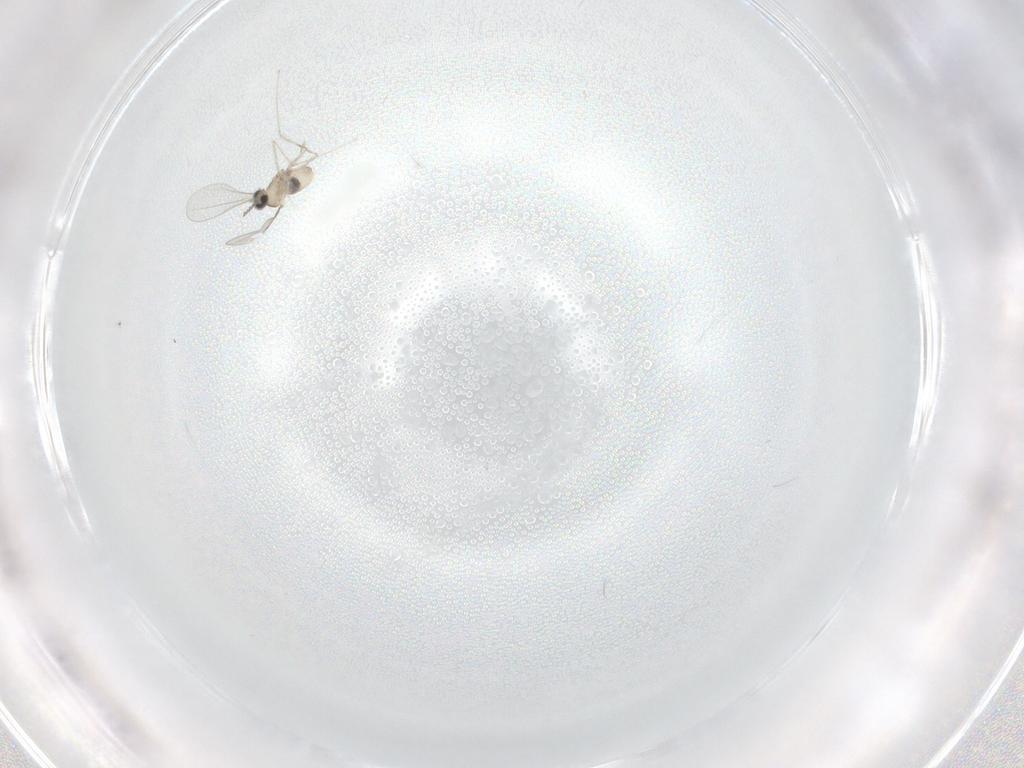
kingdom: Animalia
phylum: Arthropoda
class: Insecta
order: Diptera
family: Cecidomyiidae
